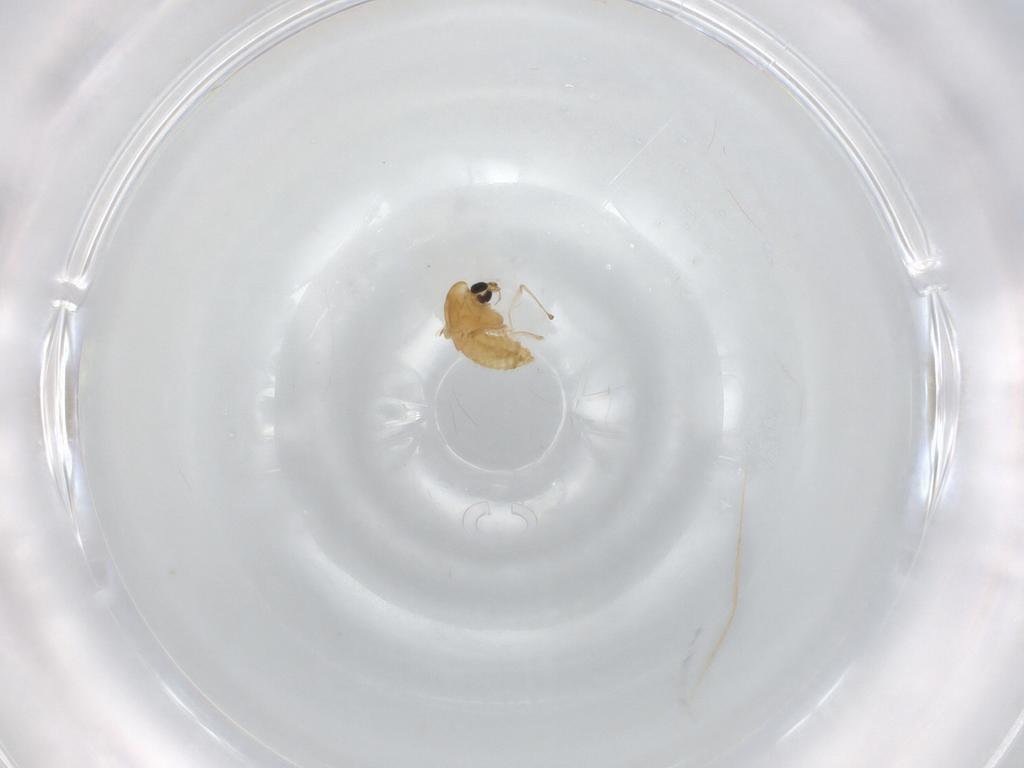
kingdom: Animalia
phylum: Arthropoda
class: Insecta
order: Diptera
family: Chironomidae
